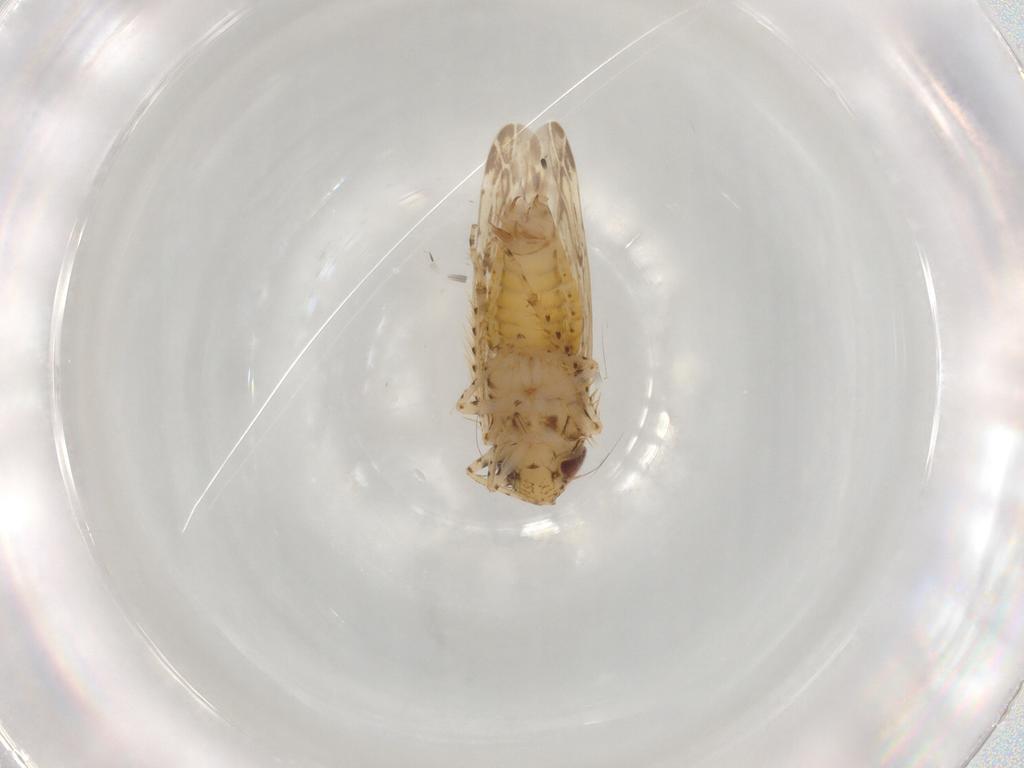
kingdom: Animalia
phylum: Arthropoda
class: Insecta
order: Hemiptera
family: Cicadellidae
